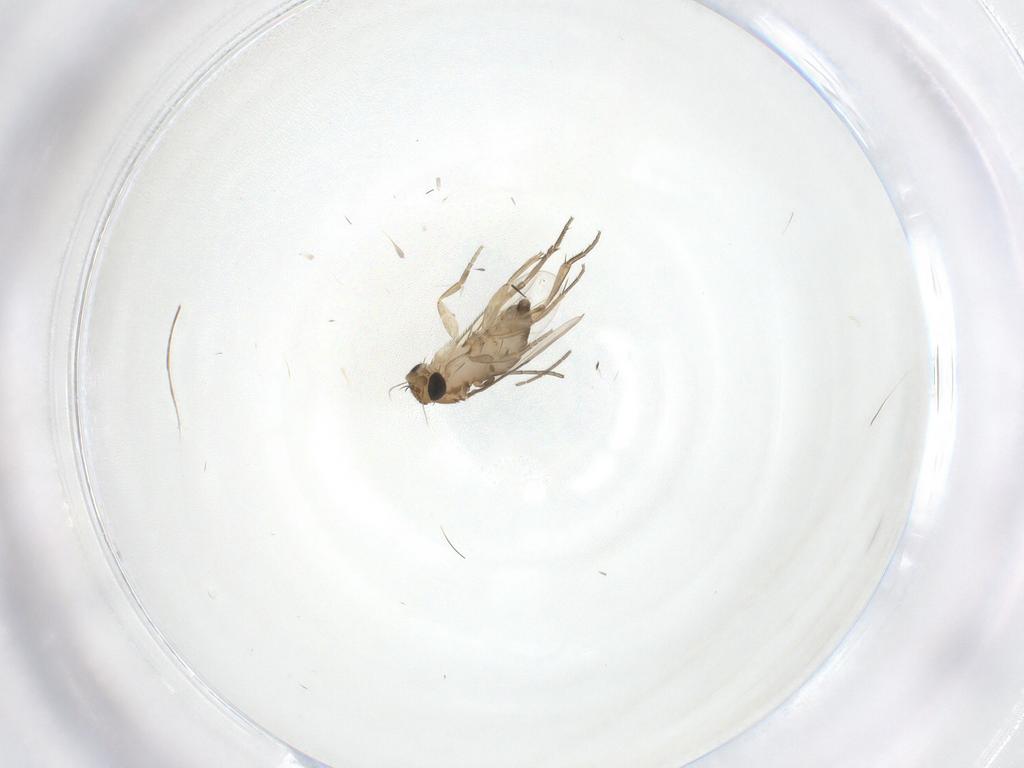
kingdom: Animalia
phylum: Arthropoda
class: Insecta
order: Diptera
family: Phoridae
